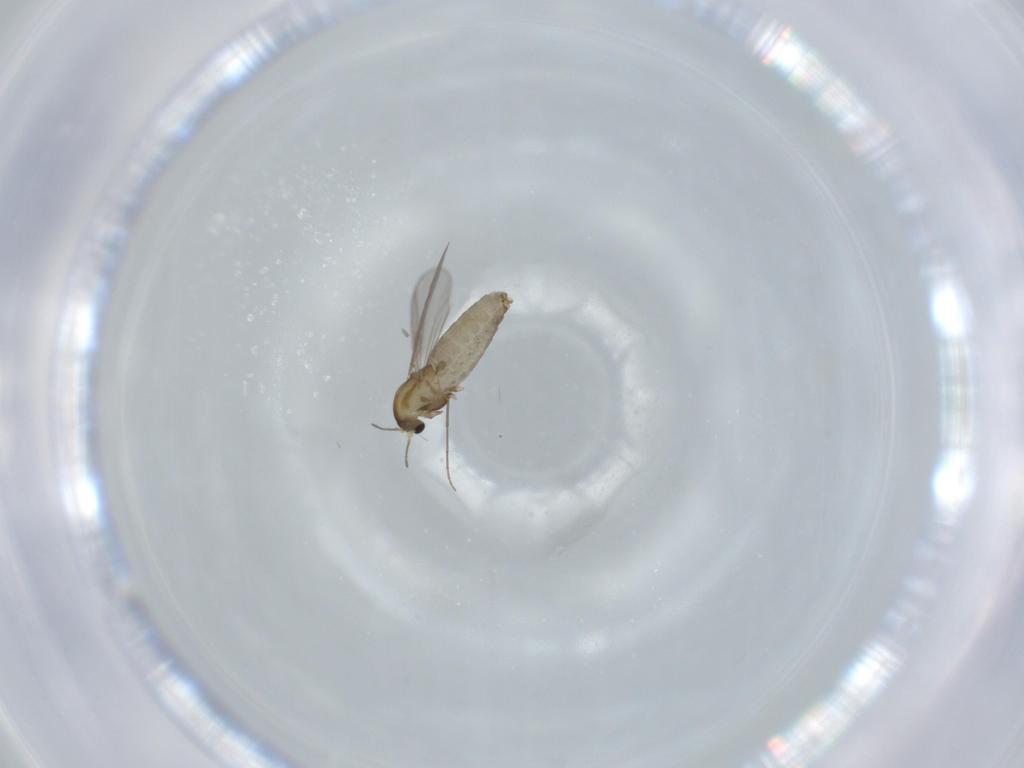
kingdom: Animalia
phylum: Arthropoda
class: Insecta
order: Diptera
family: Chironomidae
